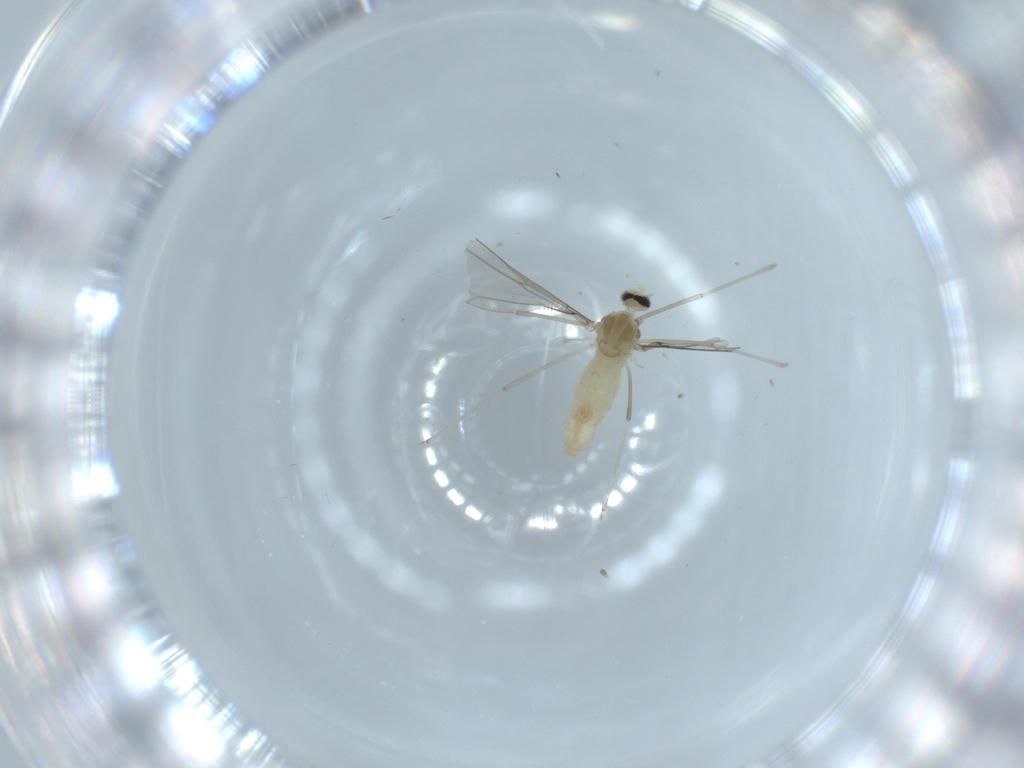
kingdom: Animalia
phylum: Arthropoda
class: Insecta
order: Diptera
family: Cecidomyiidae
